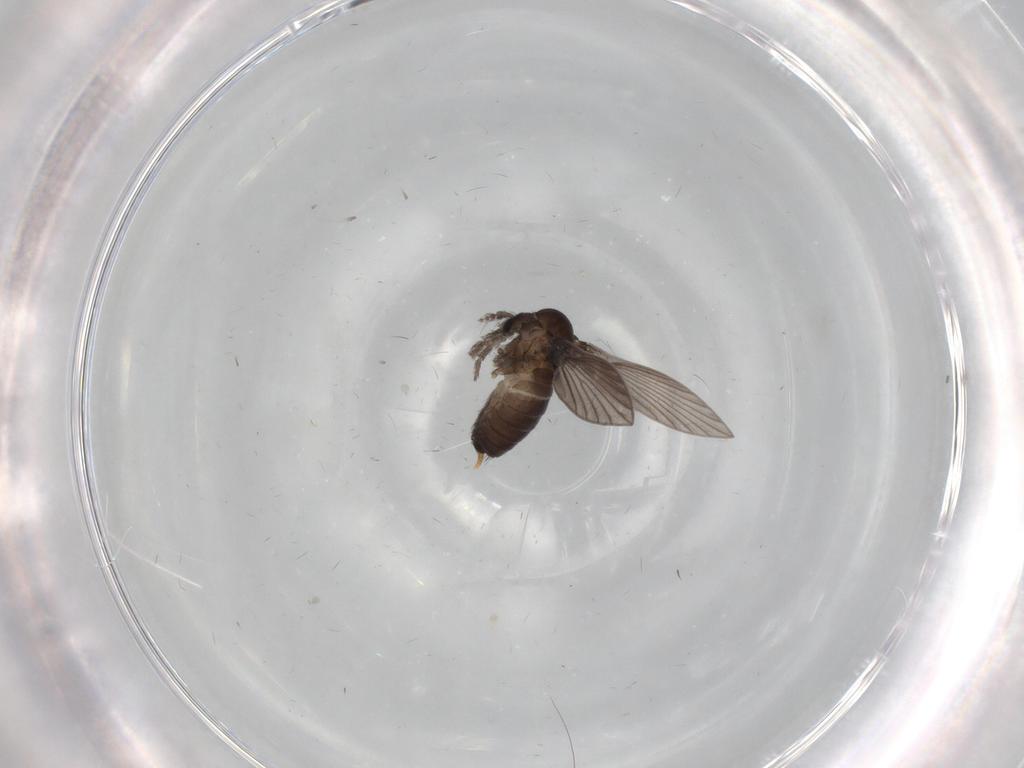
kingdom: Animalia
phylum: Arthropoda
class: Insecta
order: Diptera
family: Psychodidae
